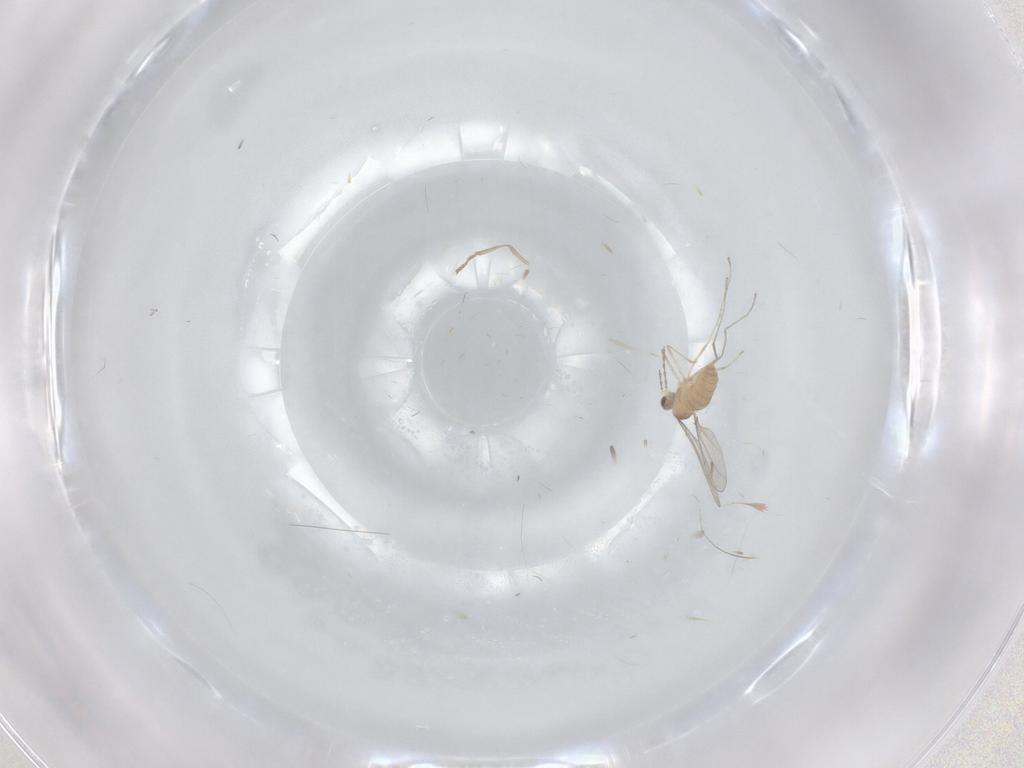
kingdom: Animalia
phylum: Arthropoda
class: Insecta
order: Diptera
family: Cecidomyiidae
